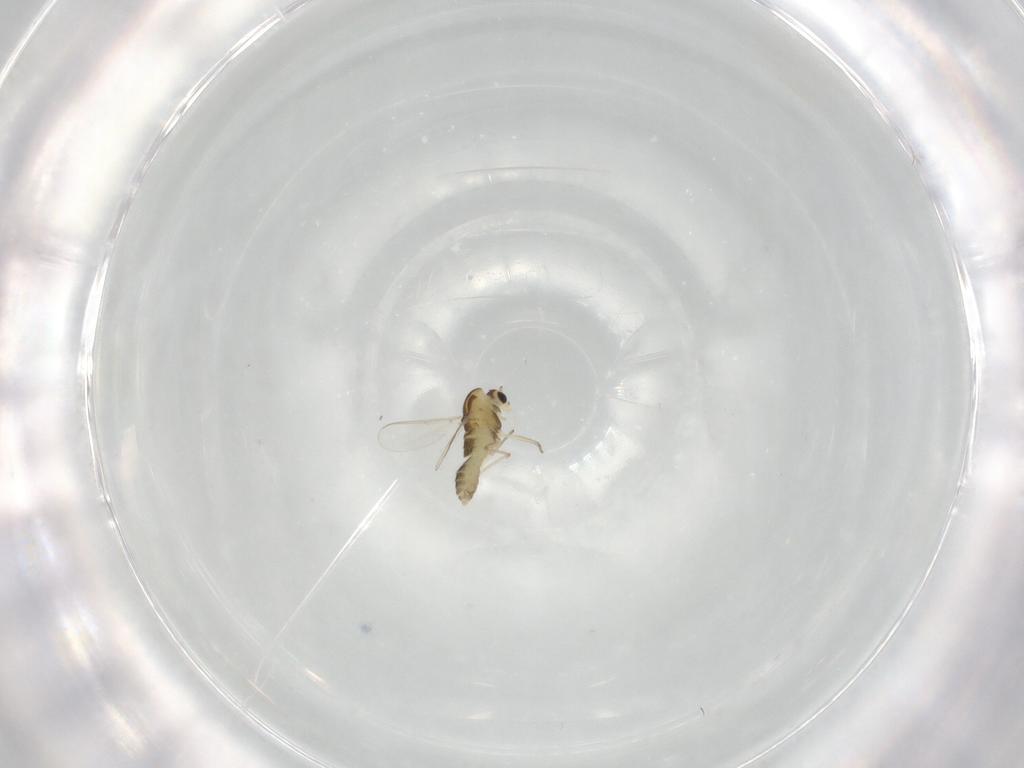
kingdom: Animalia
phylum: Arthropoda
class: Insecta
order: Diptera
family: Chironomidae
